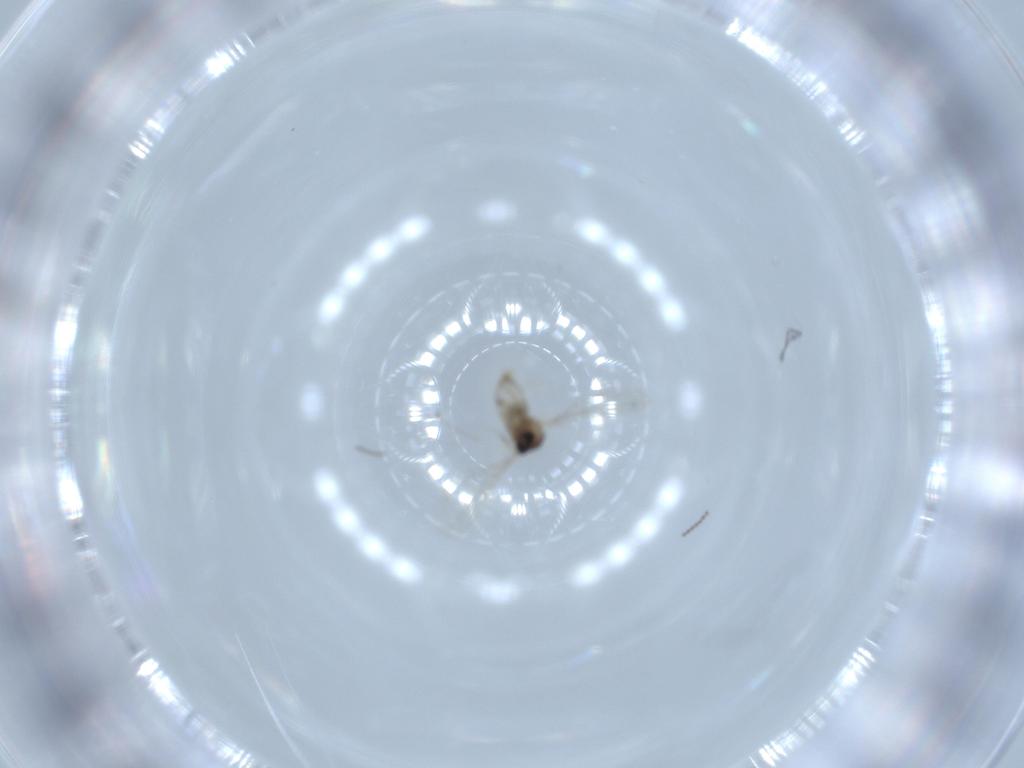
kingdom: Animalia
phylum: Arthropoda
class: Insecta
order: Diptera
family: Cecidomyiidae
